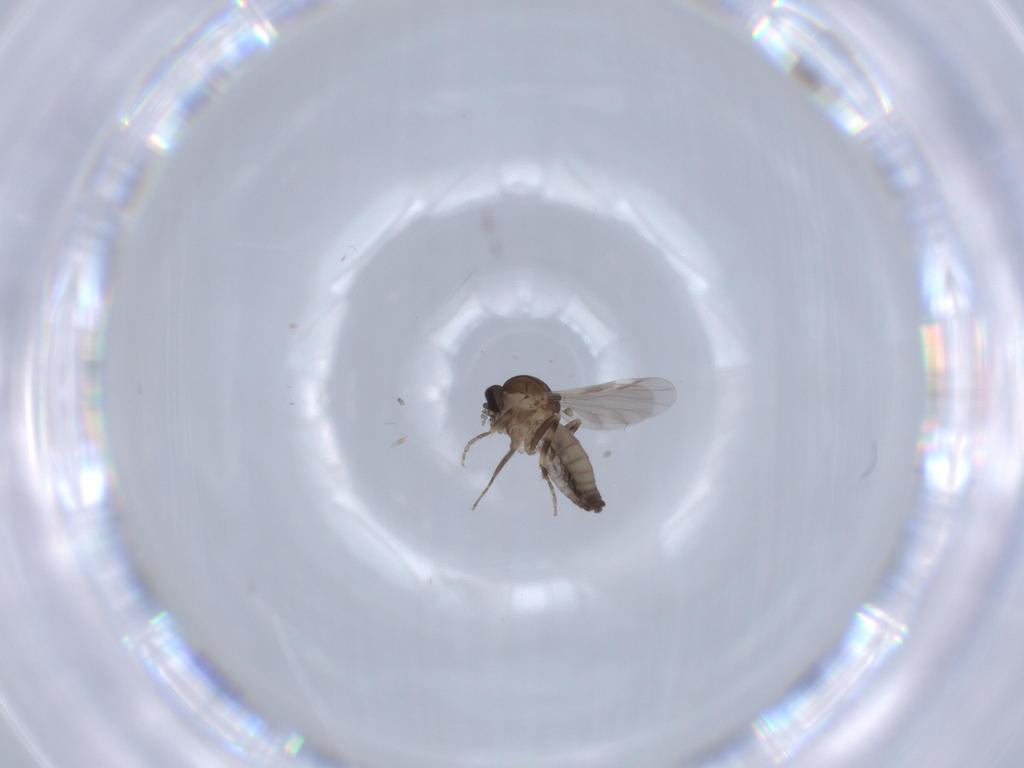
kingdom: Animalia
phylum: Arthropoda
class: Insecta
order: Diptera
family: Ceratopogonidae
